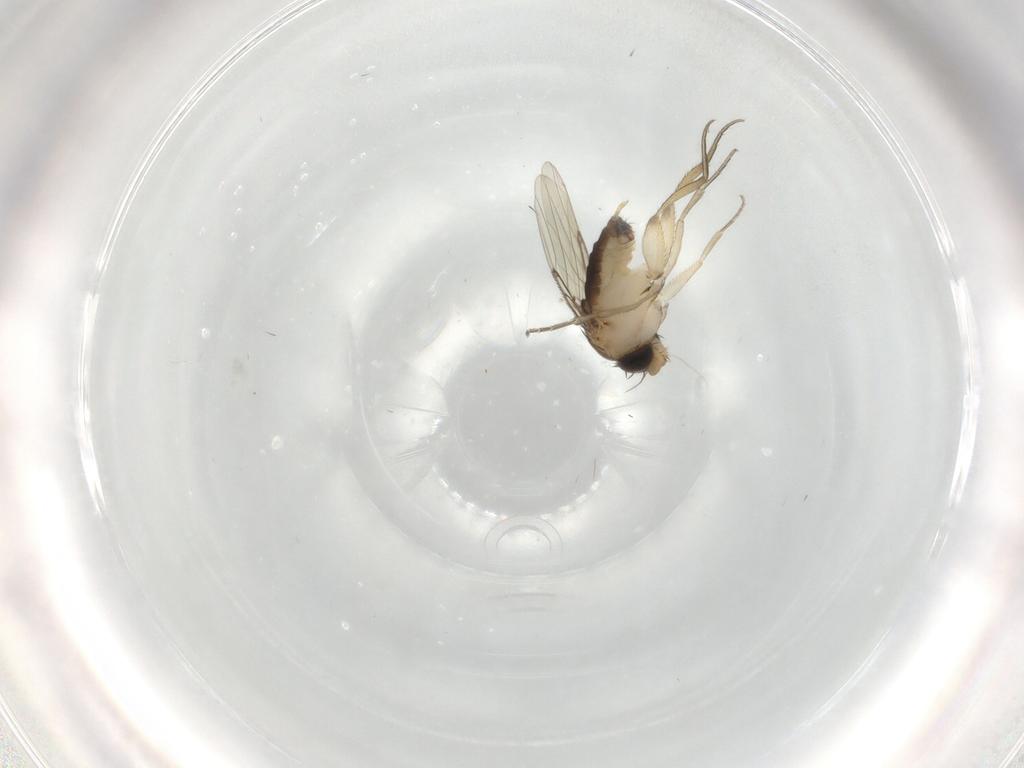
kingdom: Animalia
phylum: Arthropoda
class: Insecta
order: Diptera
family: Phoridae
